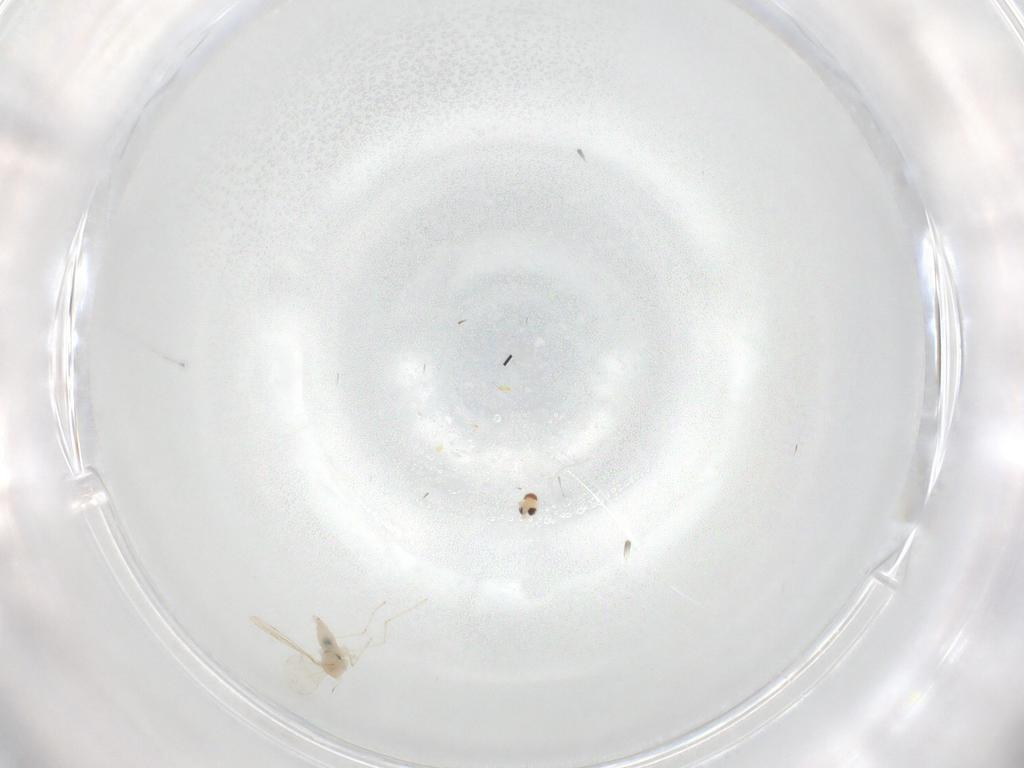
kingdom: Animalia
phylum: Arthropoda
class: Insecta
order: Diptera
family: Cecidomyiidae
